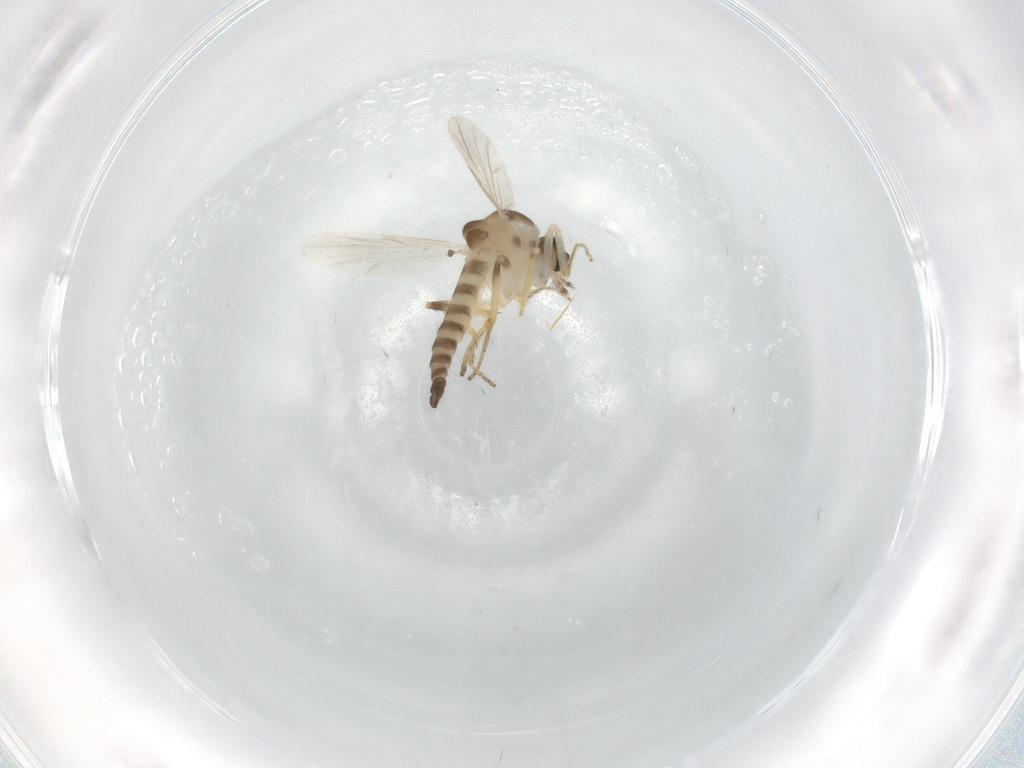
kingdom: Animalia
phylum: Arthropoda
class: Insecta
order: Diptera
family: Ceratopogonidae
